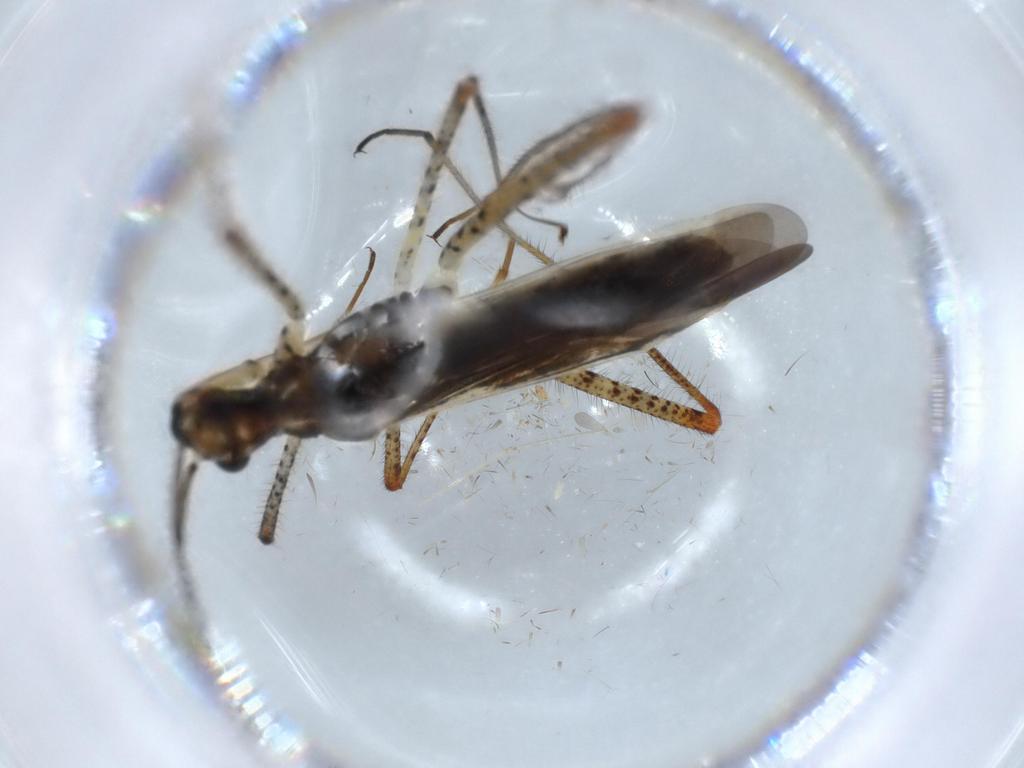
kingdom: Animalia
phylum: Arthropoda
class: Insecta
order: Hemiptera
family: Miridae
